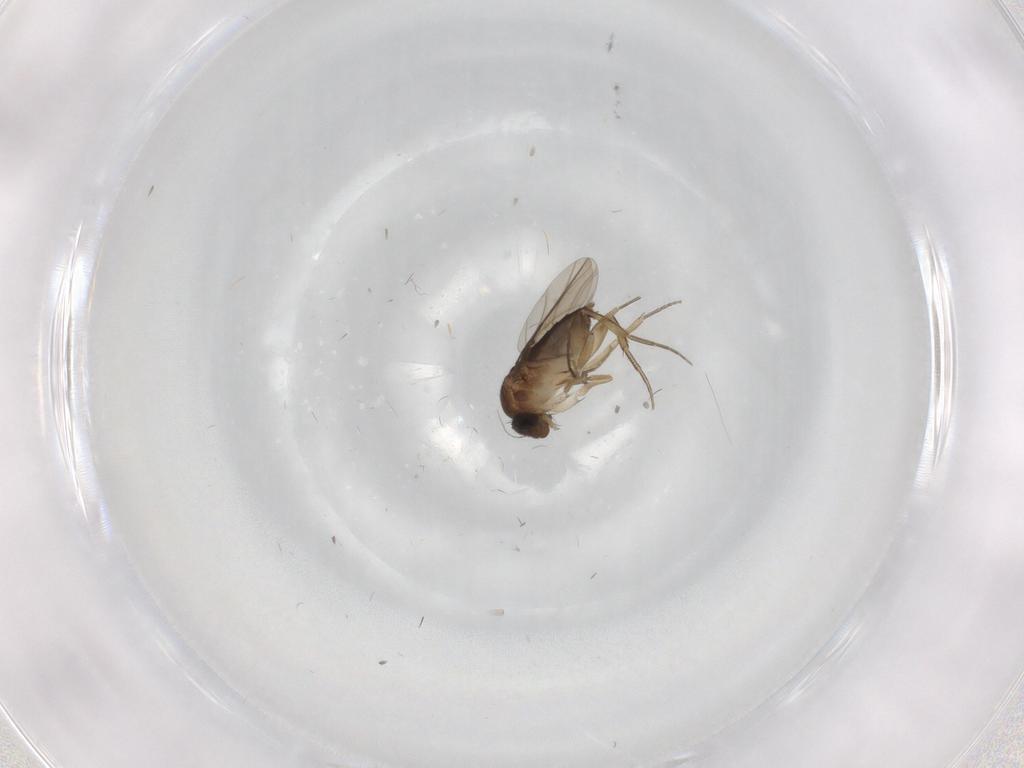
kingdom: Animalia
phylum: Arthropoda
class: Insecta
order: Diptera
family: Phoridae
